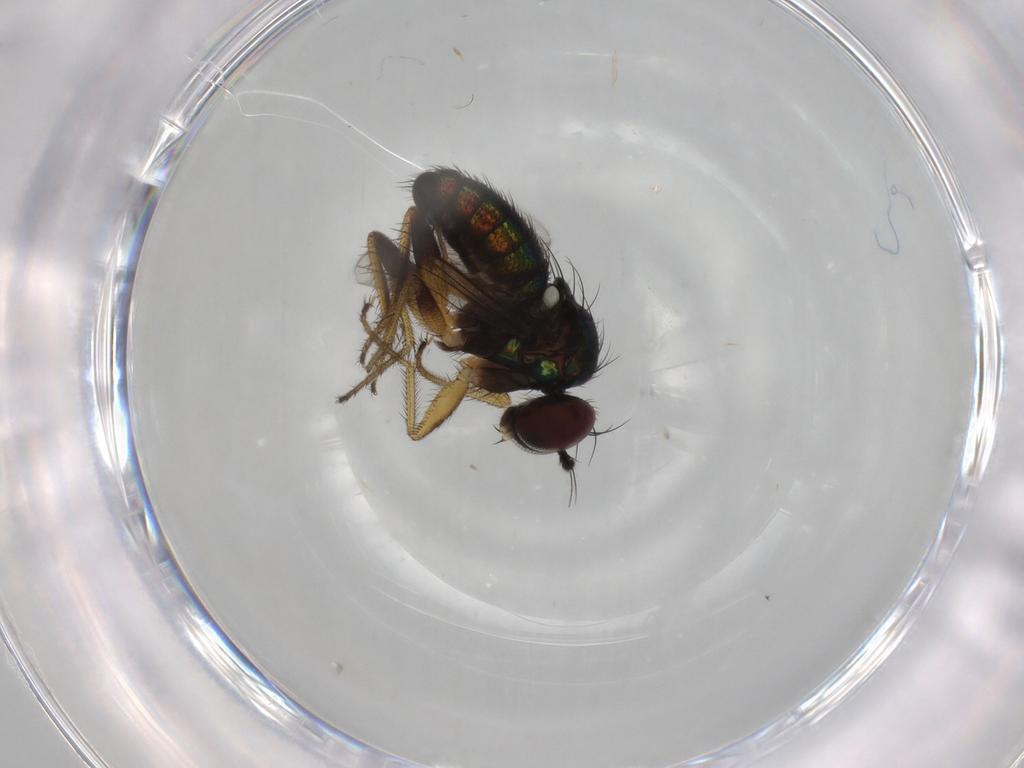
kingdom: Animalia
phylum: Arthropoda
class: Insecta
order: Diptera
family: Dolichopodidae
